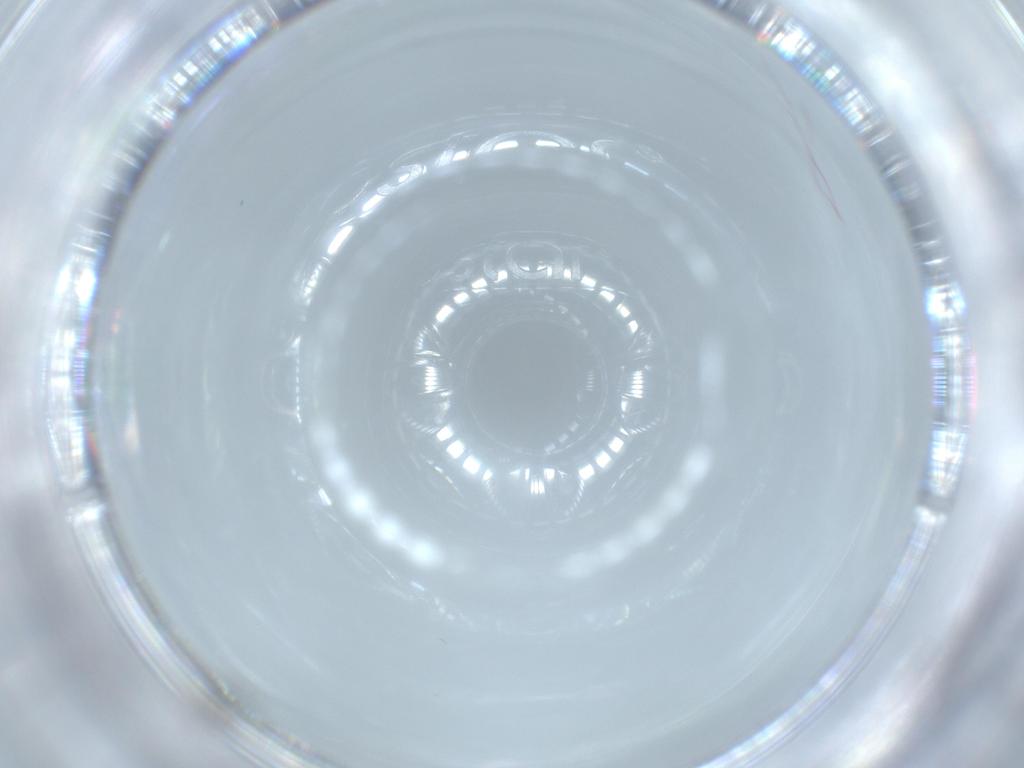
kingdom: Animalia
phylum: Arthropoda
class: Insecta
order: Diptera
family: Cecidomyiidae
